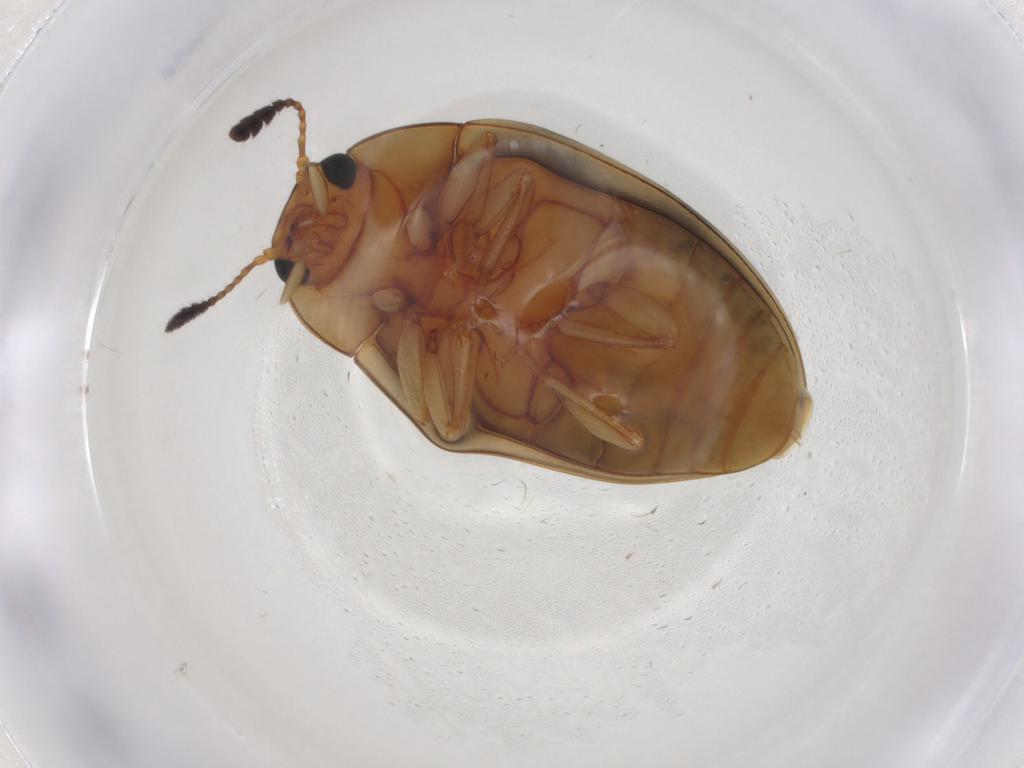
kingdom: Animalia
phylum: Arthropoda
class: Insecta
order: Coleoptera
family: Erotylidae
